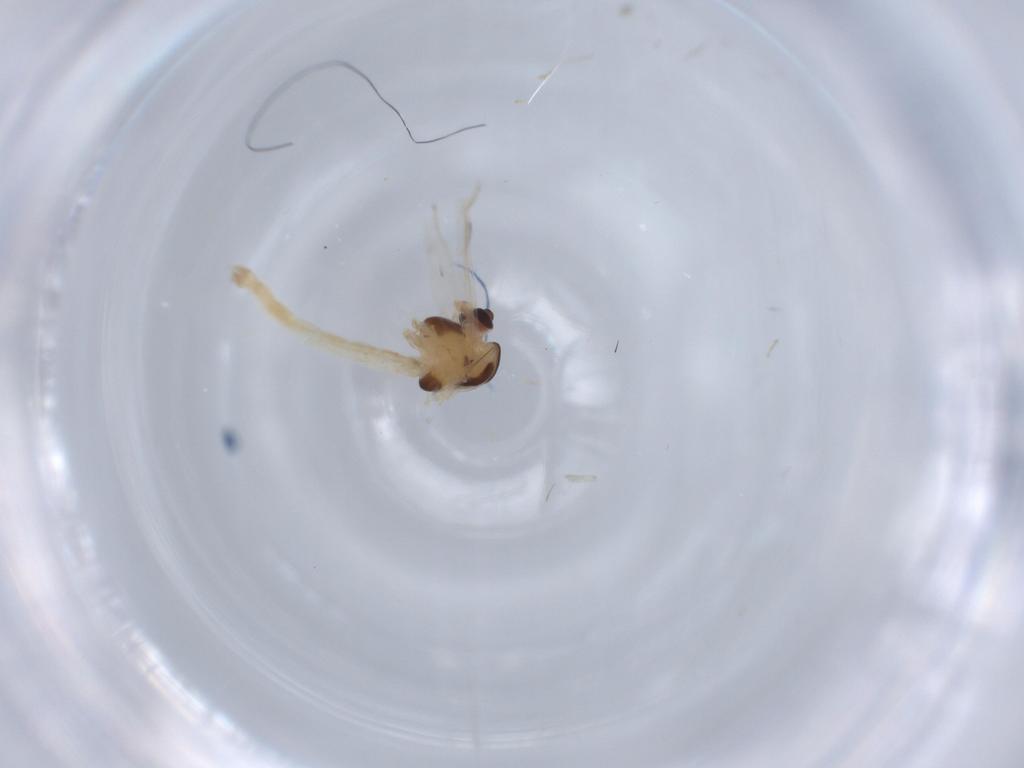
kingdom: Animalia
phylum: Arthropoda
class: Insecta
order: Diptera
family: Chironomidae
